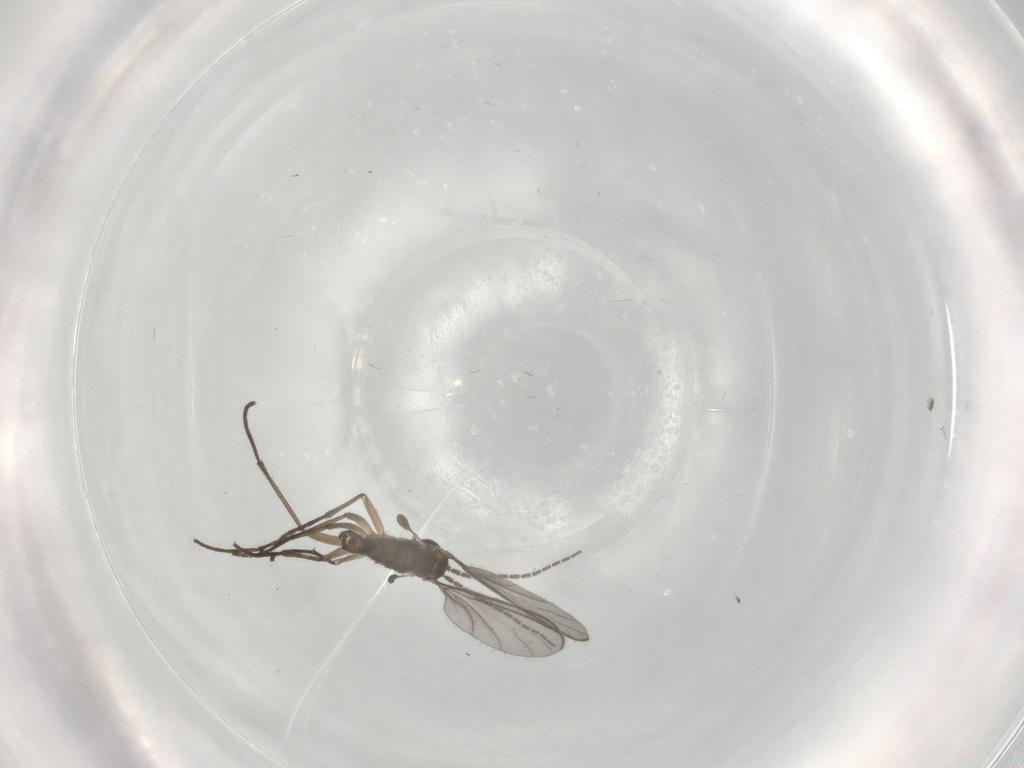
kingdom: Animalia
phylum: Arthropoda
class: Insecta
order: Diptera
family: Sciaridae
